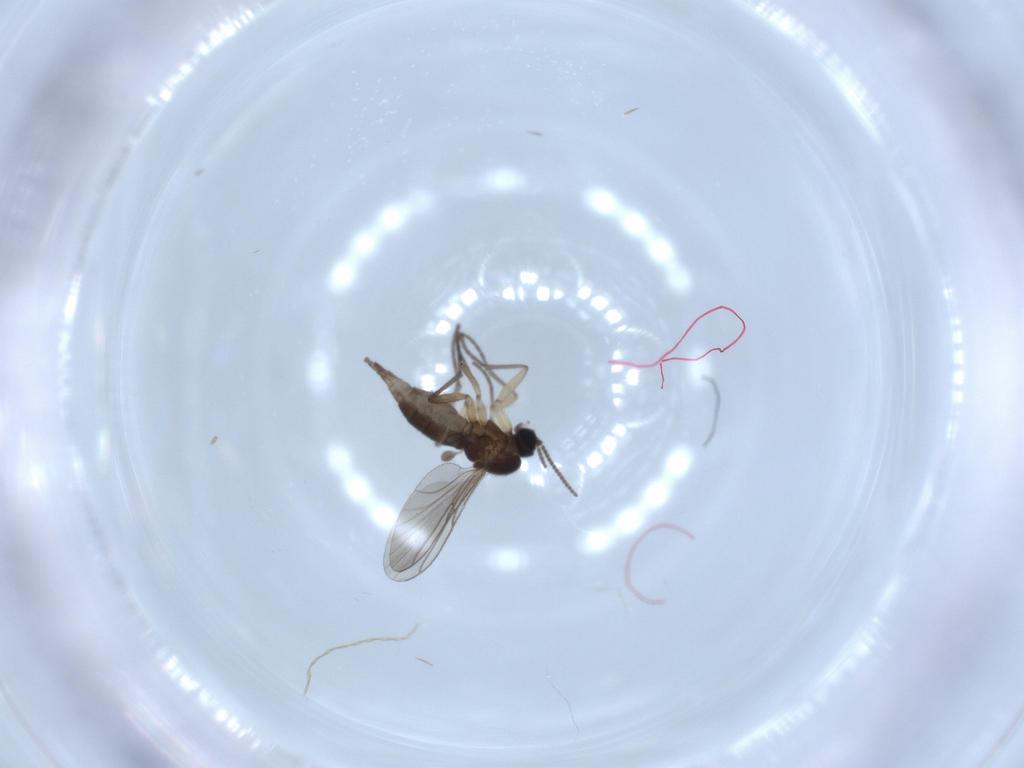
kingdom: Animalia
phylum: Arthropoda
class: Insecta
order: Diptera
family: Sciaridae
